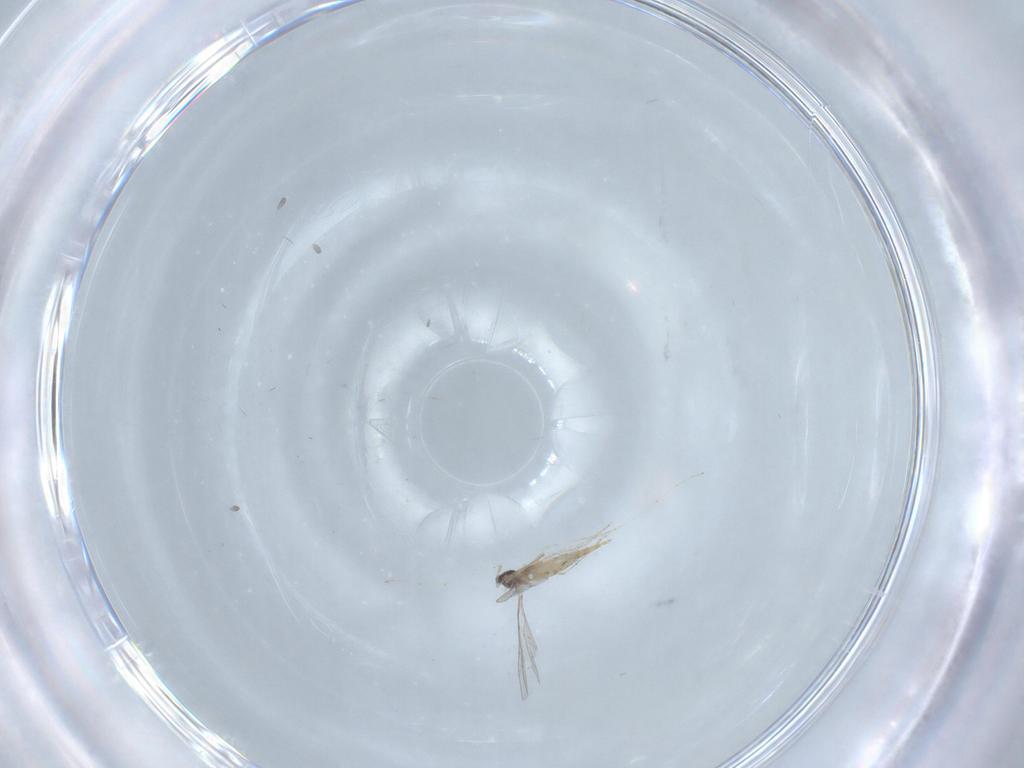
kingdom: Animalia
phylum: Arthropoda
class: Insecta
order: Diptera
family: Cecidomyiidae
